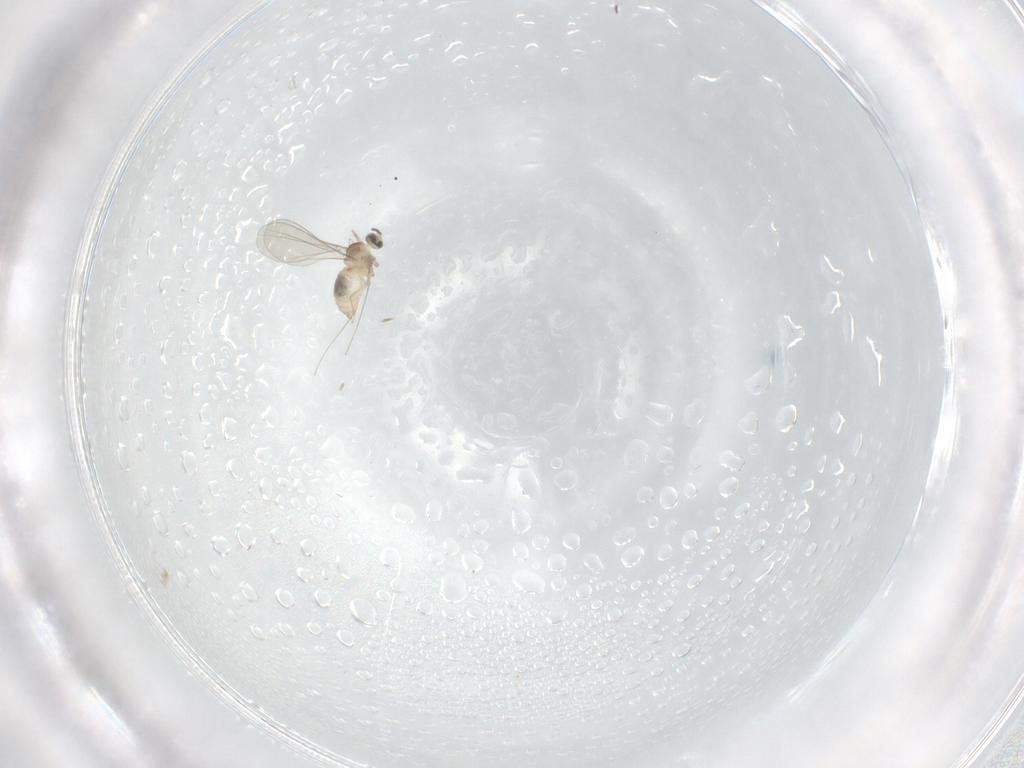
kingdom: Animalia
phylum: Arthropoda
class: Insecta
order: Diptera
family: Cecidomyiidae
